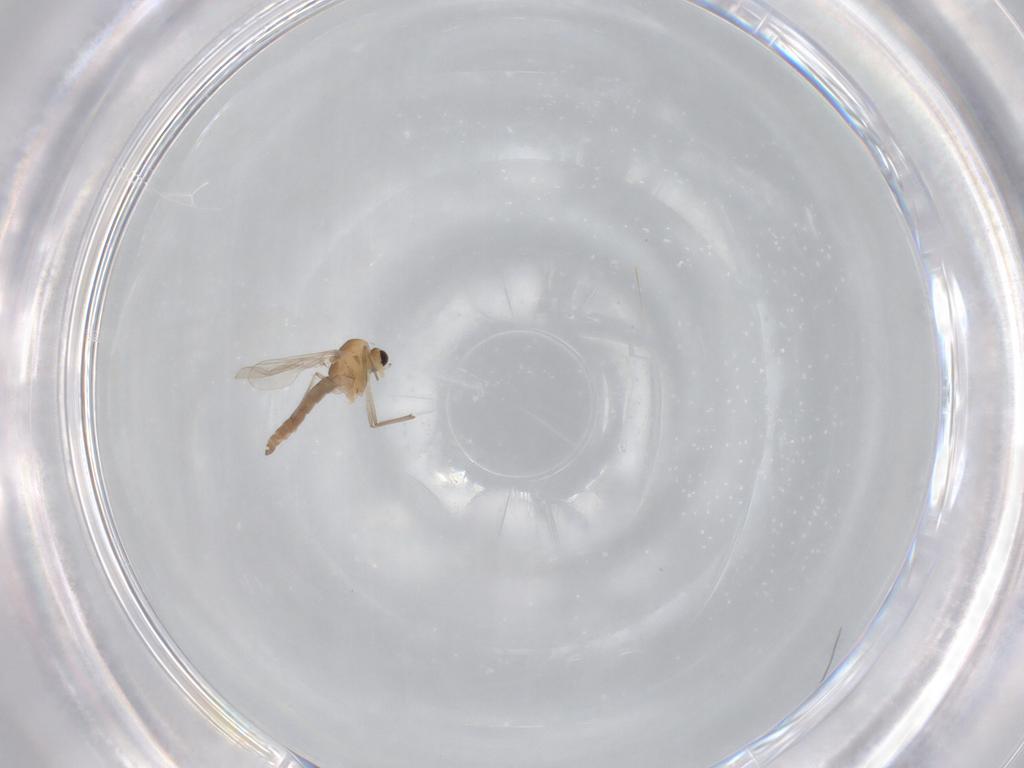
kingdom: Animalia
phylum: Arthropoda
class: Insecta
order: Diptera
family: Chironomidae
